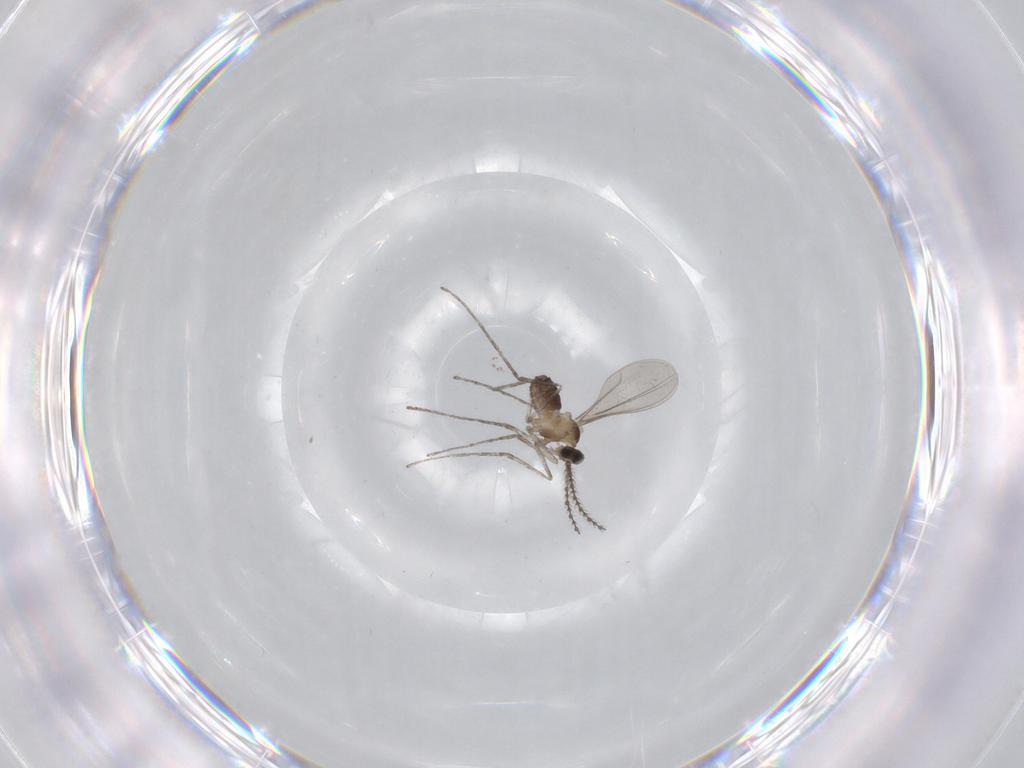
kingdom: Animalia
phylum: Arthropoda
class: Insecta
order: Diptera
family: Cecidomyiidae
